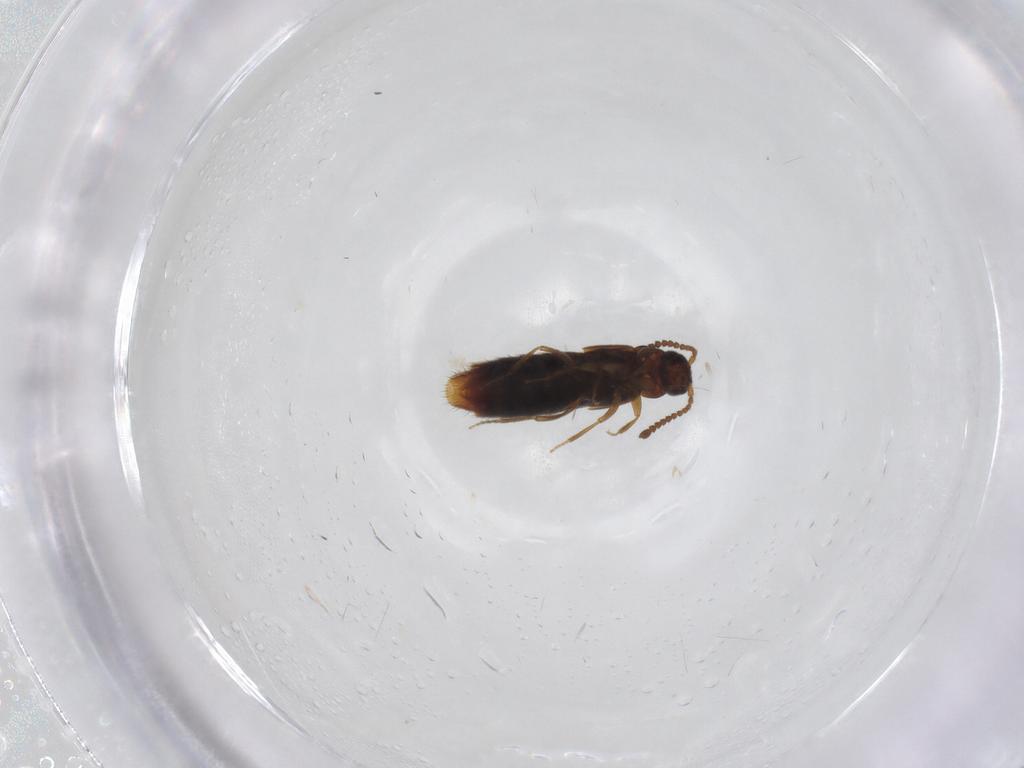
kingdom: Animalia
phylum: Arthropoda
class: Insecta
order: Coleoptera
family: Staphylinidae
